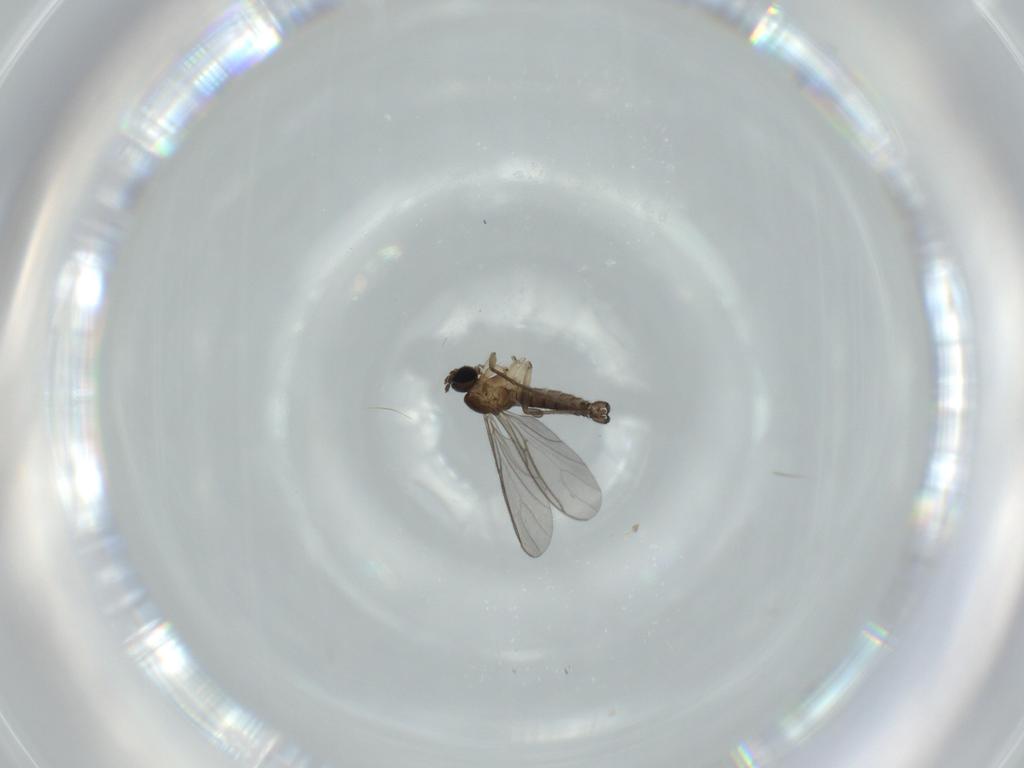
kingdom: Animalia
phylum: Arthropoda
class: Insecta
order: Diptera
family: Sciaridae
